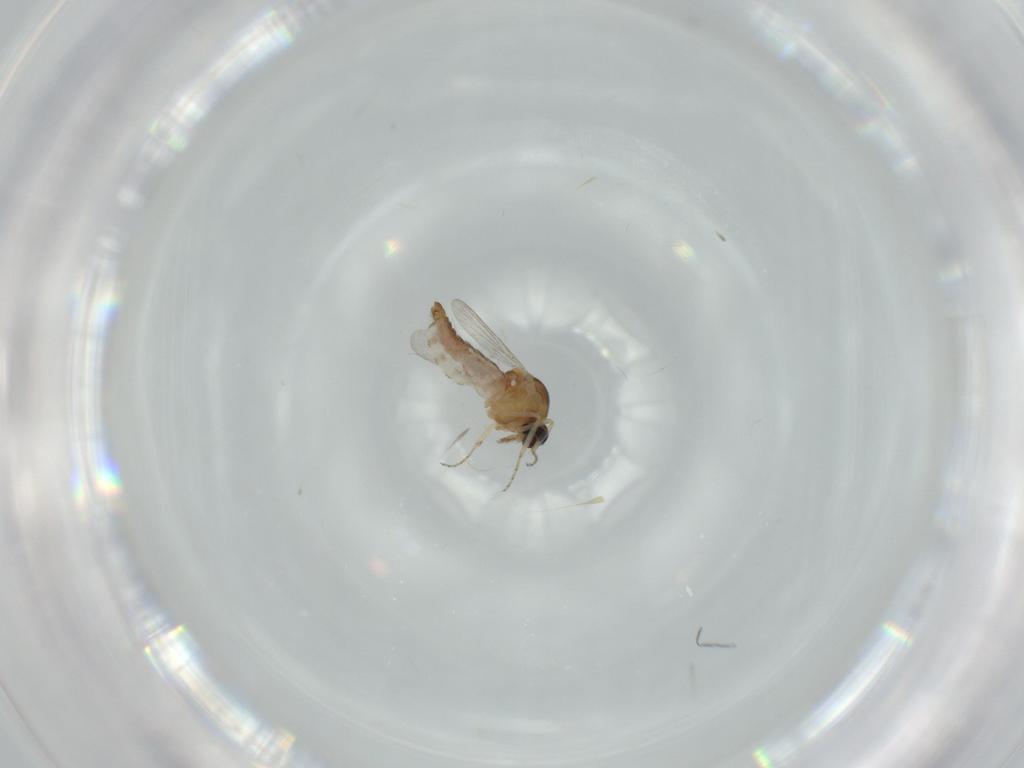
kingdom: Animalia
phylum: Arthropoda
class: Insecta
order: Diptera
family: Ceratopogonidae
